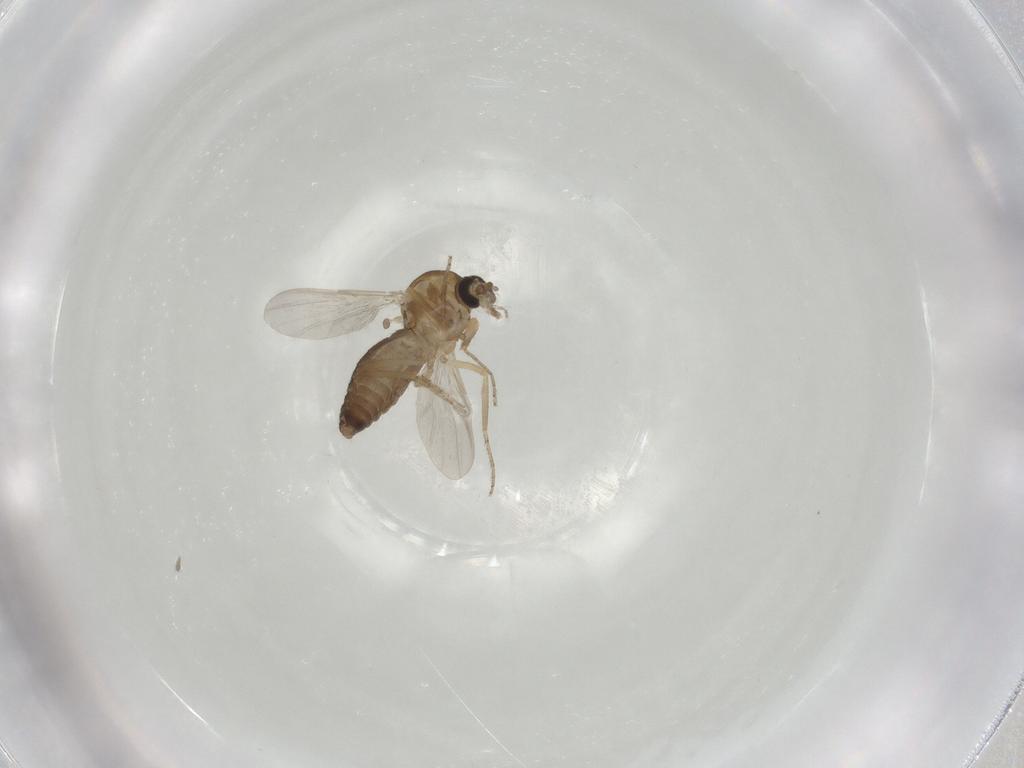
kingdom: Animalia
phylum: Arthropoda
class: Insecta
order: Diptera
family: Ceratopogonidae
